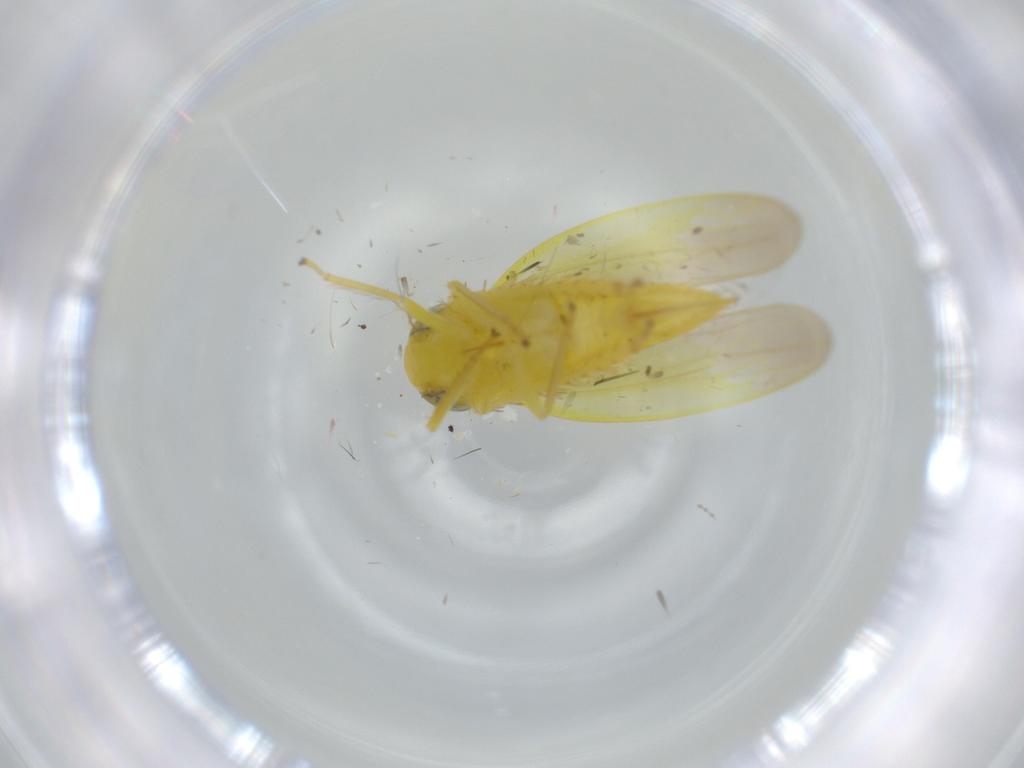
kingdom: Animalia
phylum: Arthropoda
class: Insecta
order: Hemiptera
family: Cicadellidae
